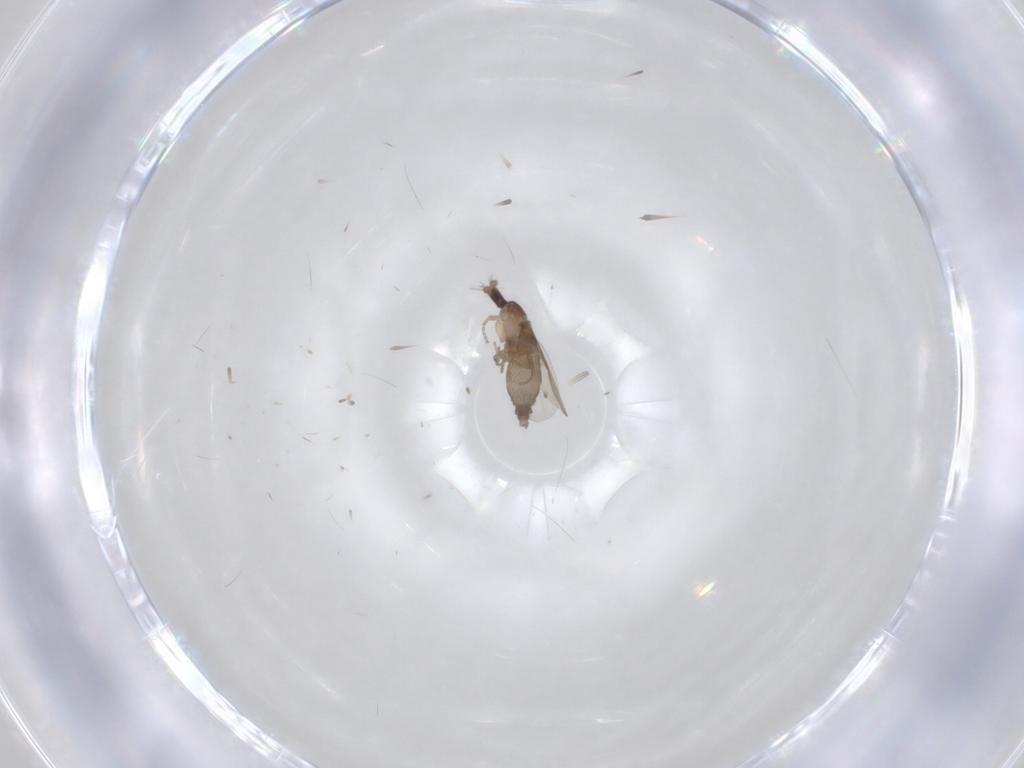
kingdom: Animalia
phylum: Arthropoda
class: Insecta
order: Diptera
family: Phoridae
